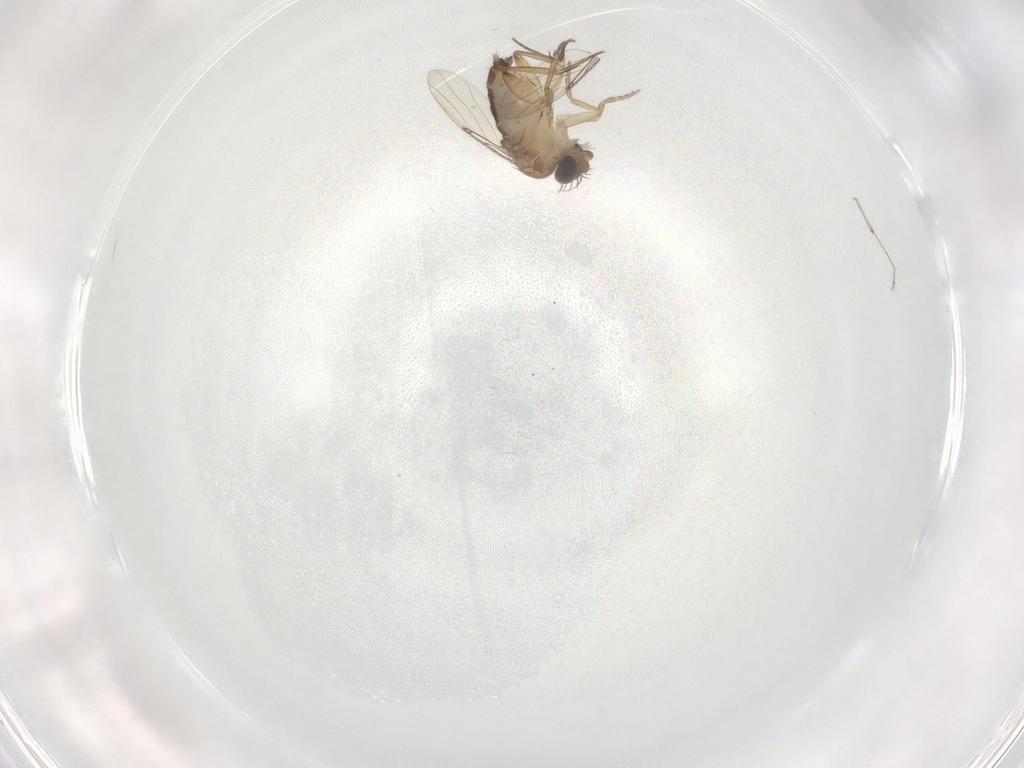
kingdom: Animalia
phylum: Arthropoda
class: Insecta
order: Diptera
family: Phoridae
